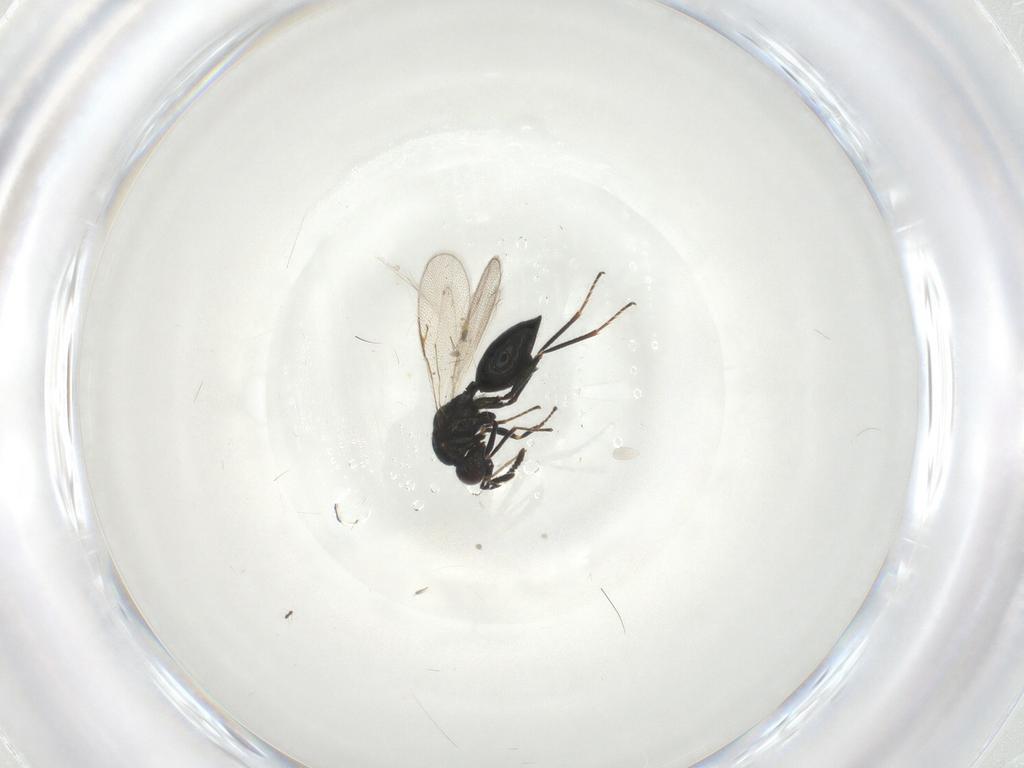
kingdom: Animalia
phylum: Arthropoda
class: Insecta
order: Hymenoptera
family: Chalcidoidea_incertae_sedis
